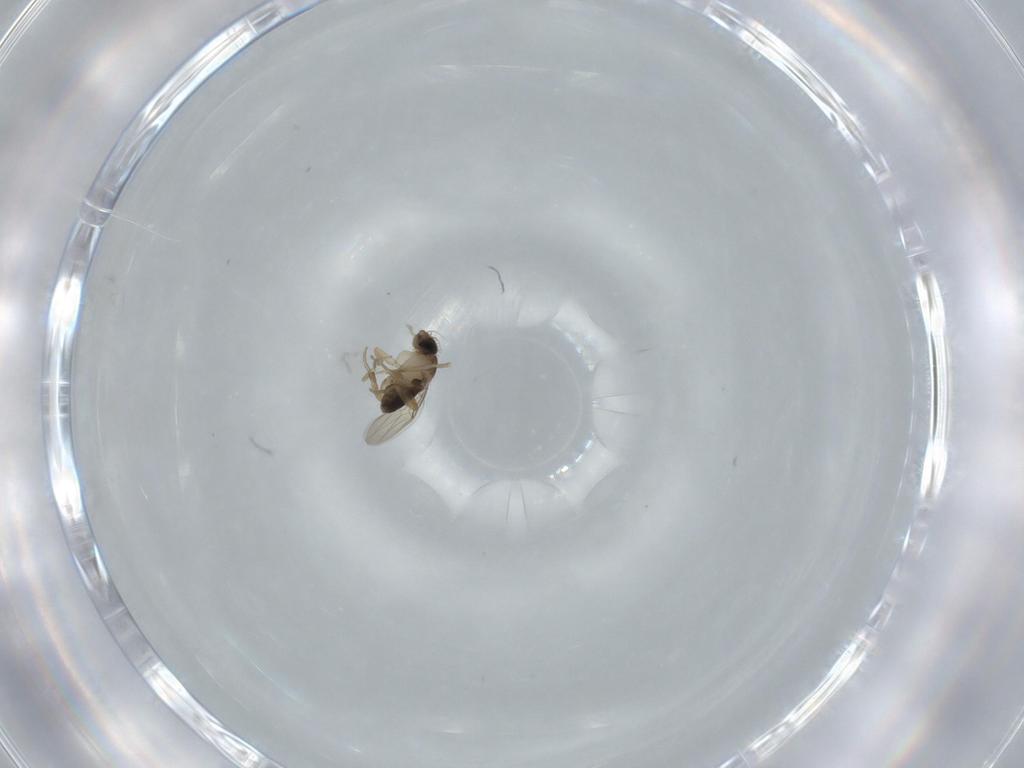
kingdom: Animalia
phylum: Arthropoda
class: Insecta
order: Diptera
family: Phoridae
